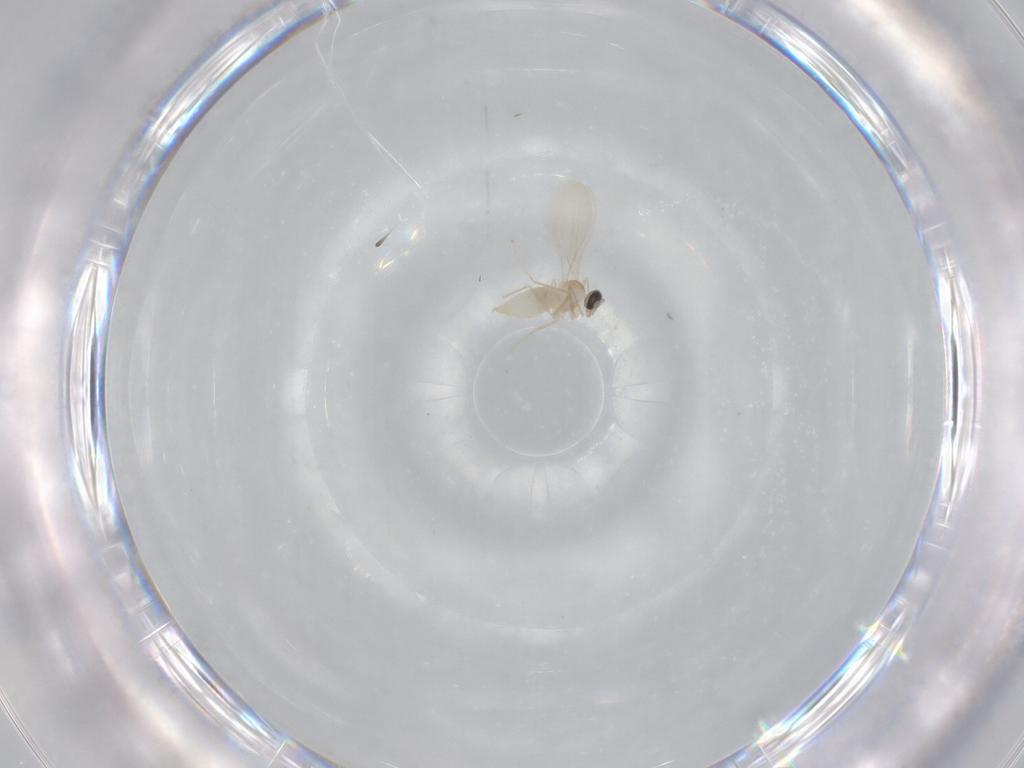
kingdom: Animalia
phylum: Arthropoda
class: Insecta
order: Diptera
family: Cecidomyiidae
